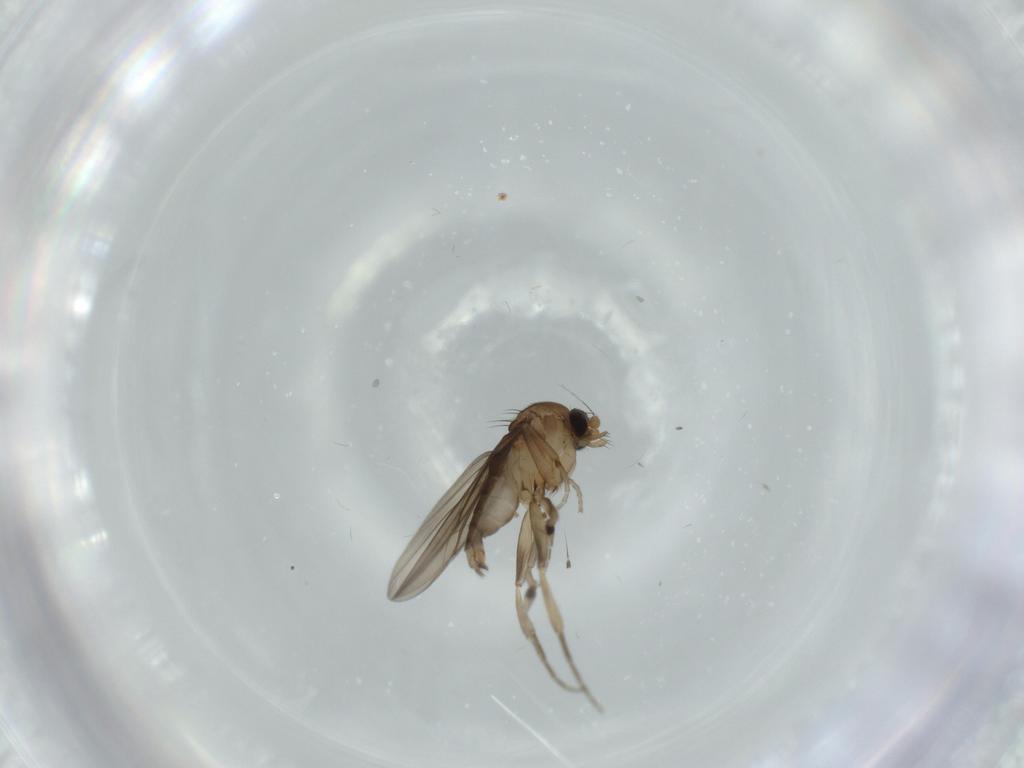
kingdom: Animalia
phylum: Arthropoda
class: Insecta
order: Diptera
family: Phoridae
